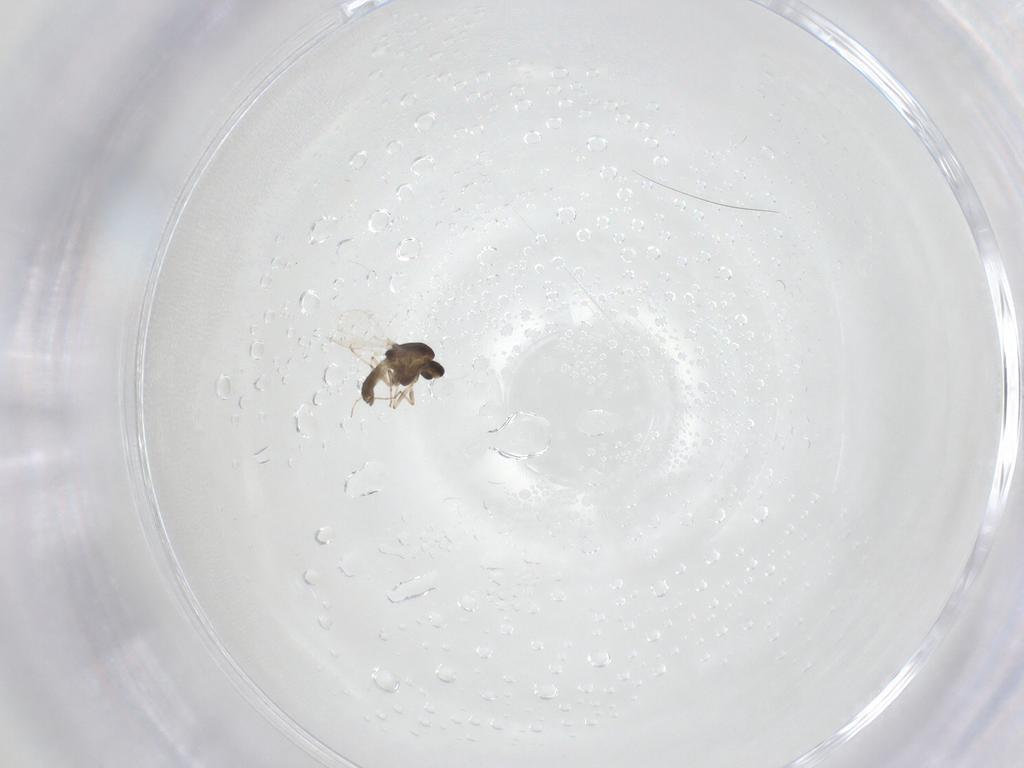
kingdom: Animalia
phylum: Arthropoda
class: Insecta
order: Diptera
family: Chironomidae
